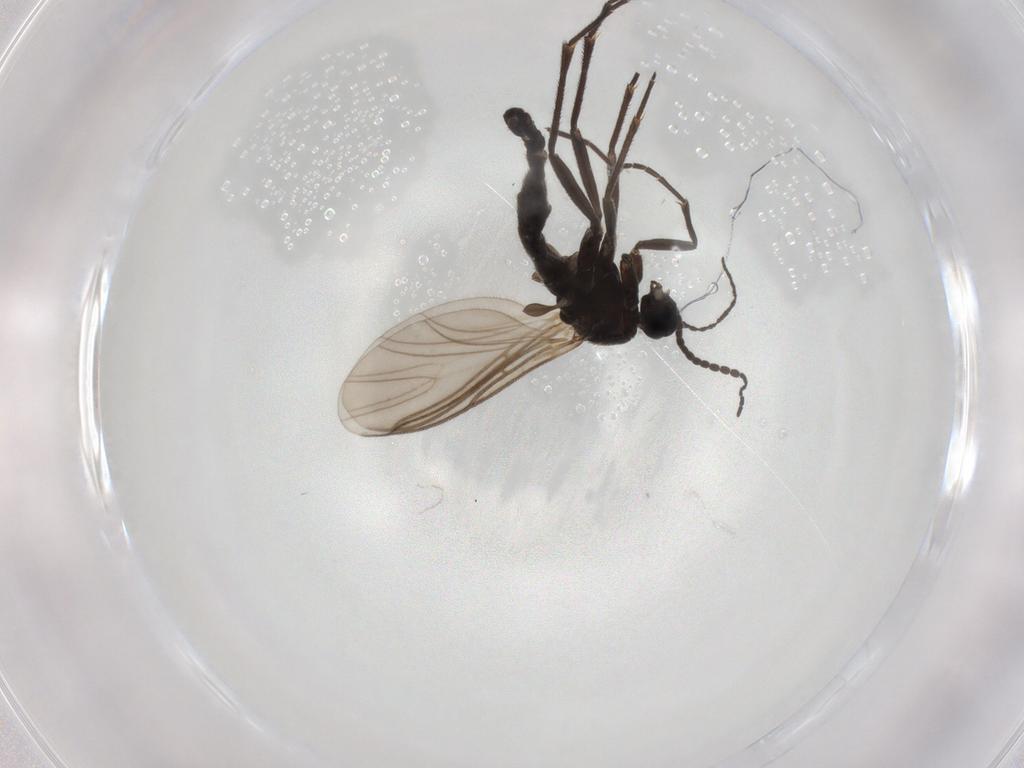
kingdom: Animalia
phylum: Arthropoda
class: Insecta
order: Diptera
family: Sciaridae
